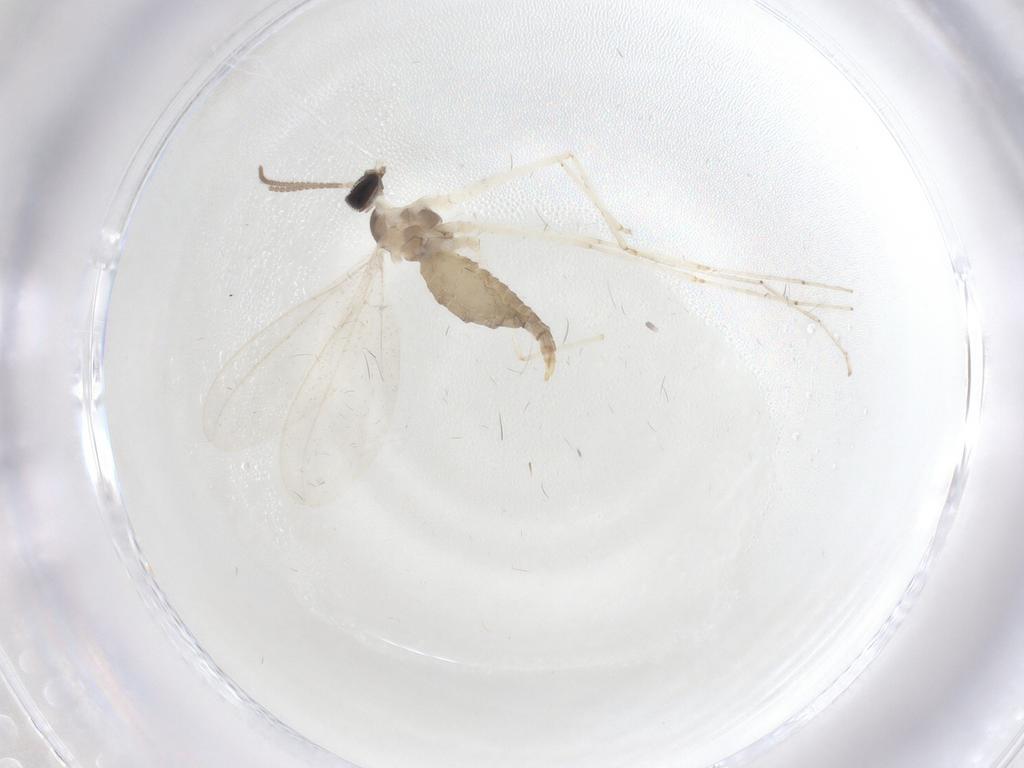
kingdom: Animalia
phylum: Arthropoda
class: Insecta
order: Diptera
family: Cecidomyiidae
